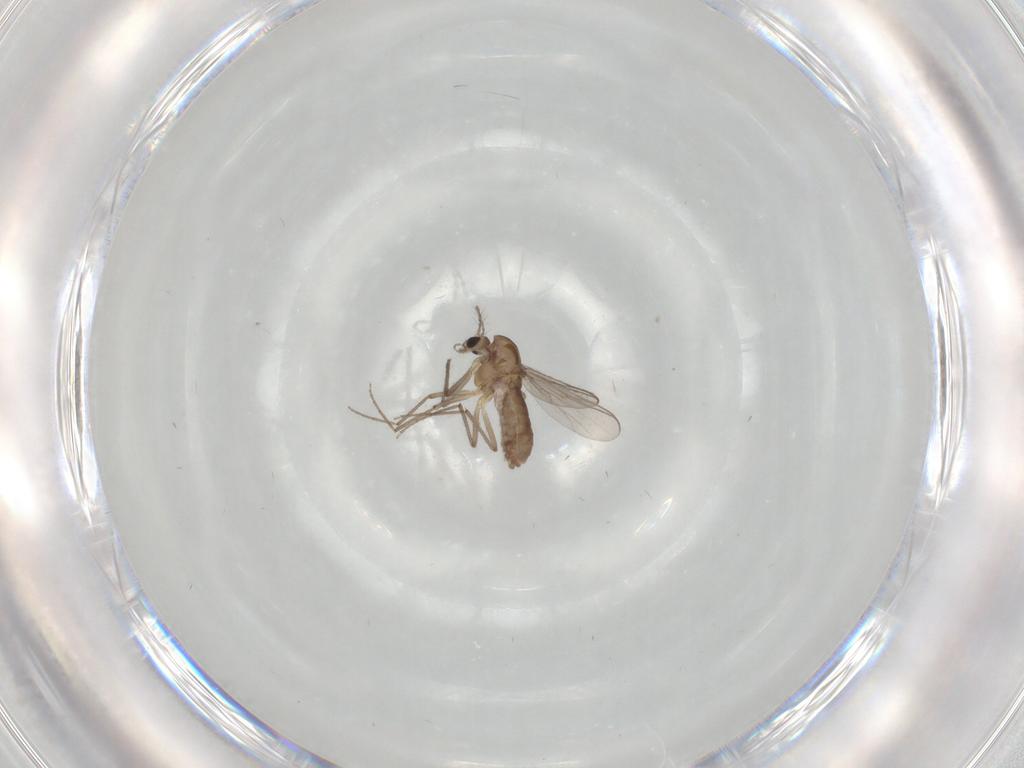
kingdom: Animalia
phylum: Arthropoda
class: Insecta
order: Diptera
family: Chironomidae
